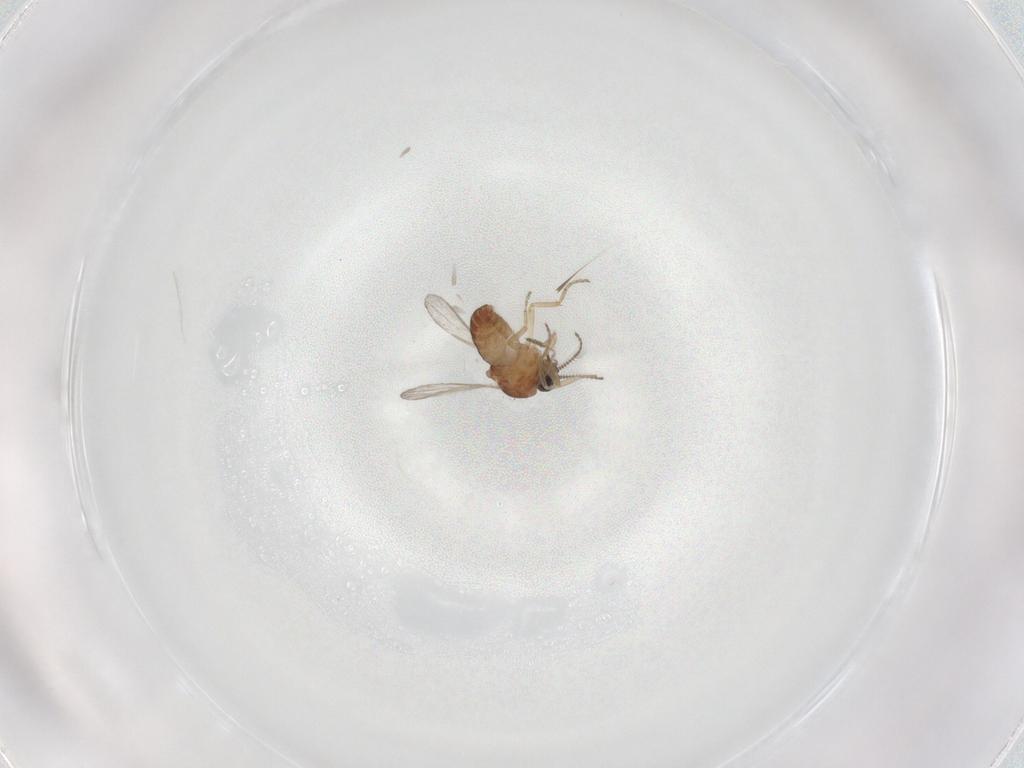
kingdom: Animalia
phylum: Arthropoda
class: Insecta
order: Diptera
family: Ceratopogonidae
